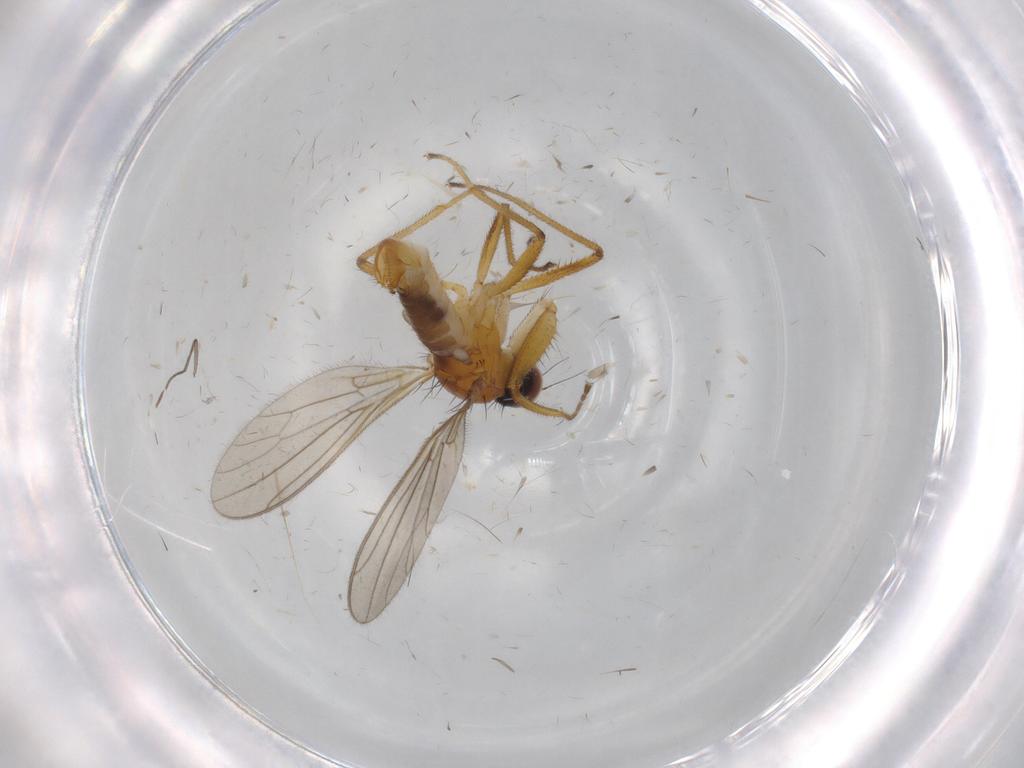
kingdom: Animalia
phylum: Arthropoda
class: Insecta
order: Diptera
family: Empididae
